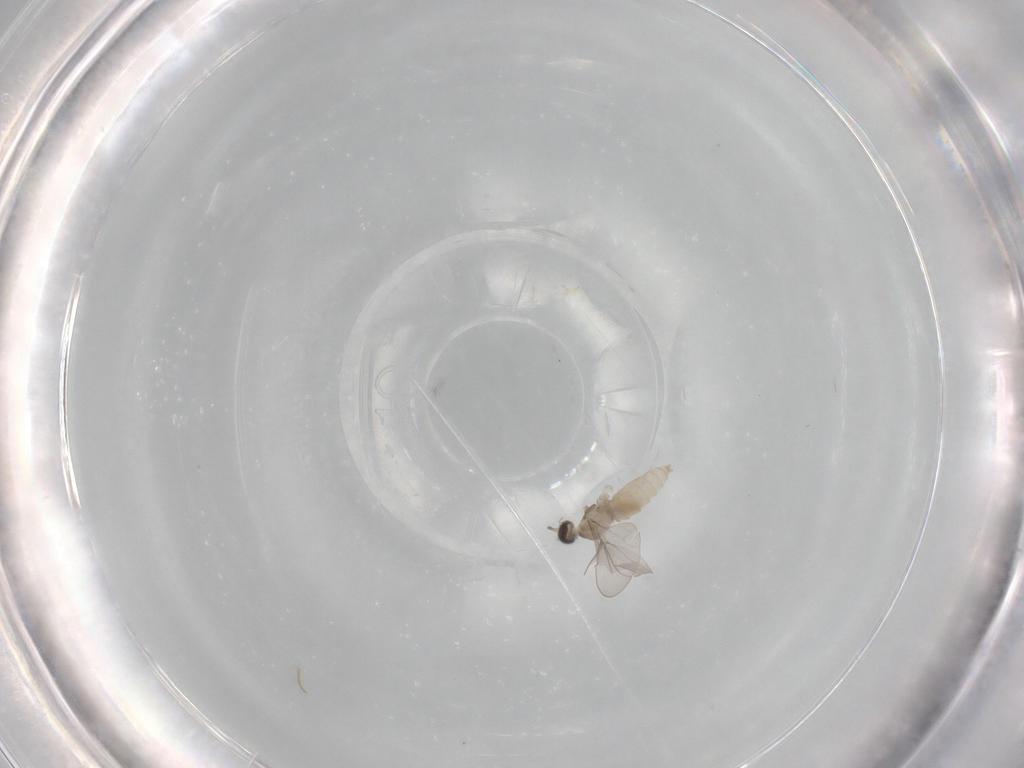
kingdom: Animalia
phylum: Arthropoda
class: Insecta
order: Diptera
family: Cecidomyiidae
